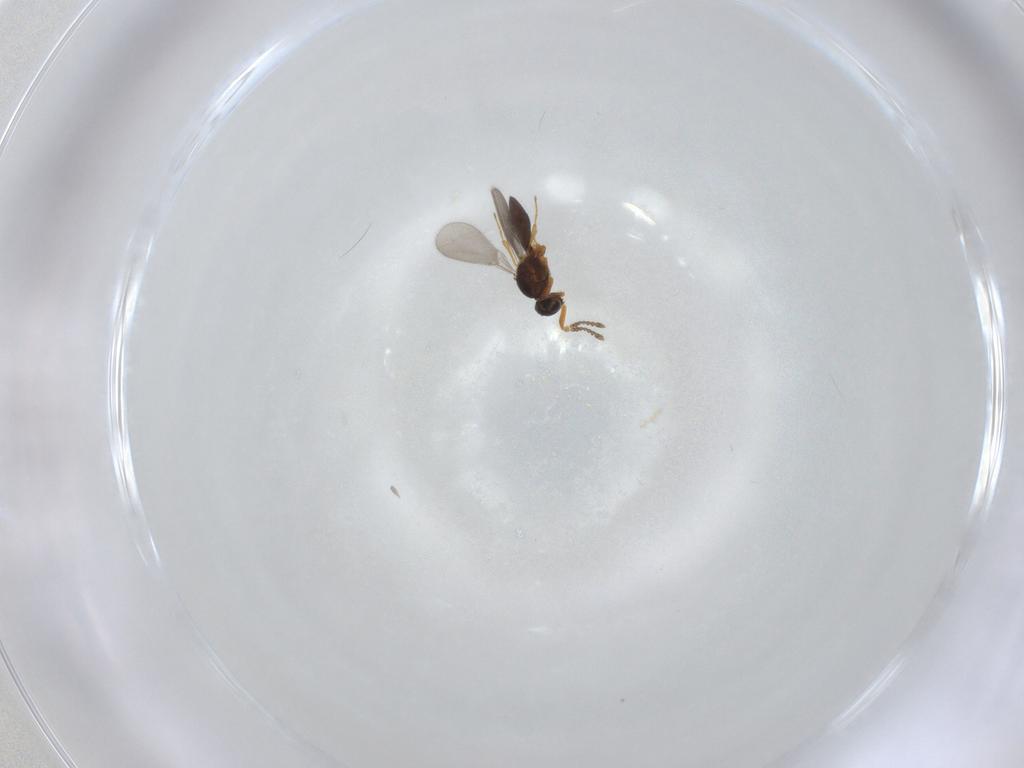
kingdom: Animalia
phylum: Arthropoda
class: Insecta
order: Hymenoptera
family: Platygastridae
